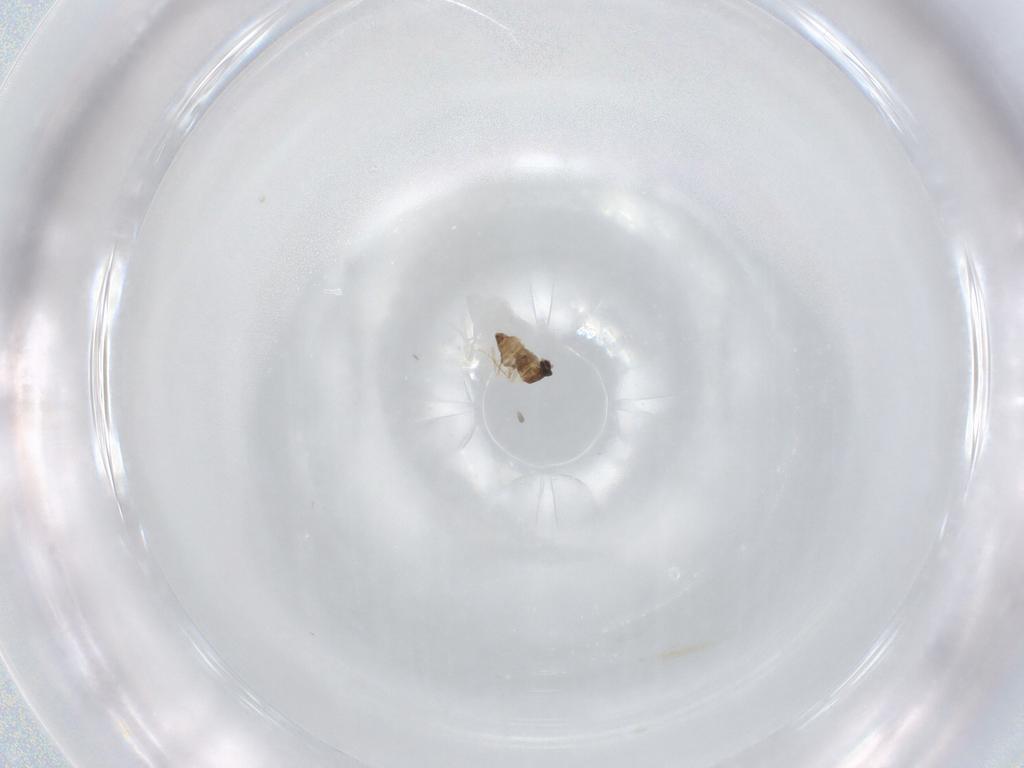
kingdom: Animalia
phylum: Arthropoda
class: Insecta
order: Diptera
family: Cecidomyiidae
